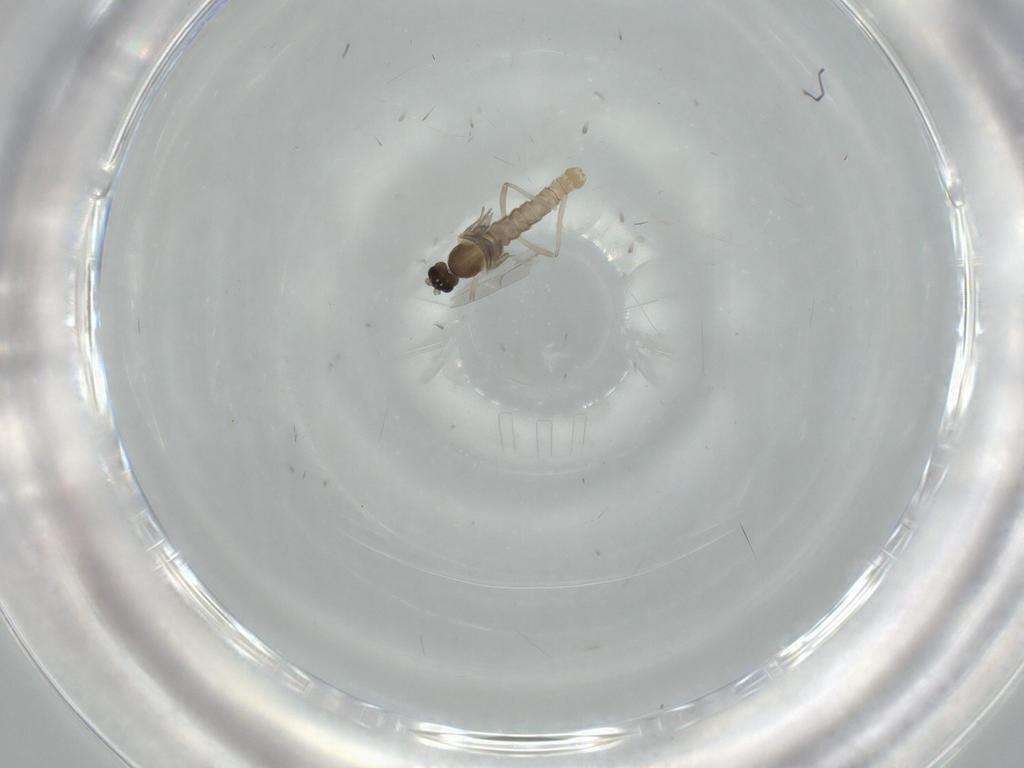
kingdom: Animalia
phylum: Arthropoda
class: Insecta
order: Diptera
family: Cecidomyiidae
